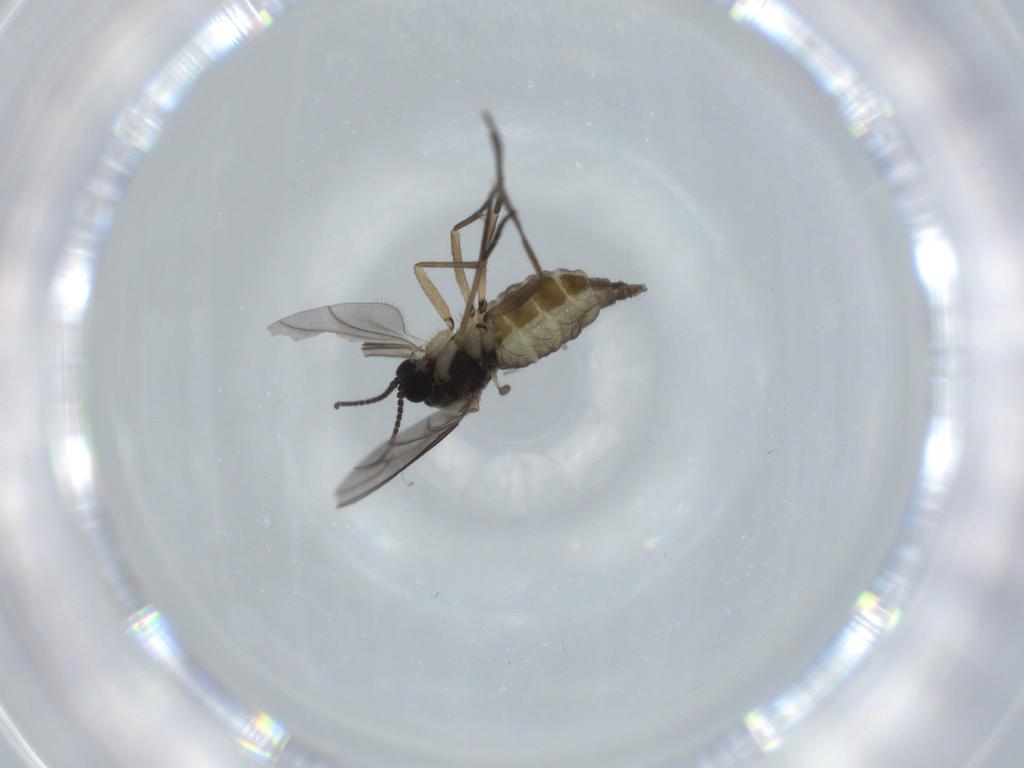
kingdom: Animalia
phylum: Arthropoda
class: Insecta
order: Diptera
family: Sciaridae
